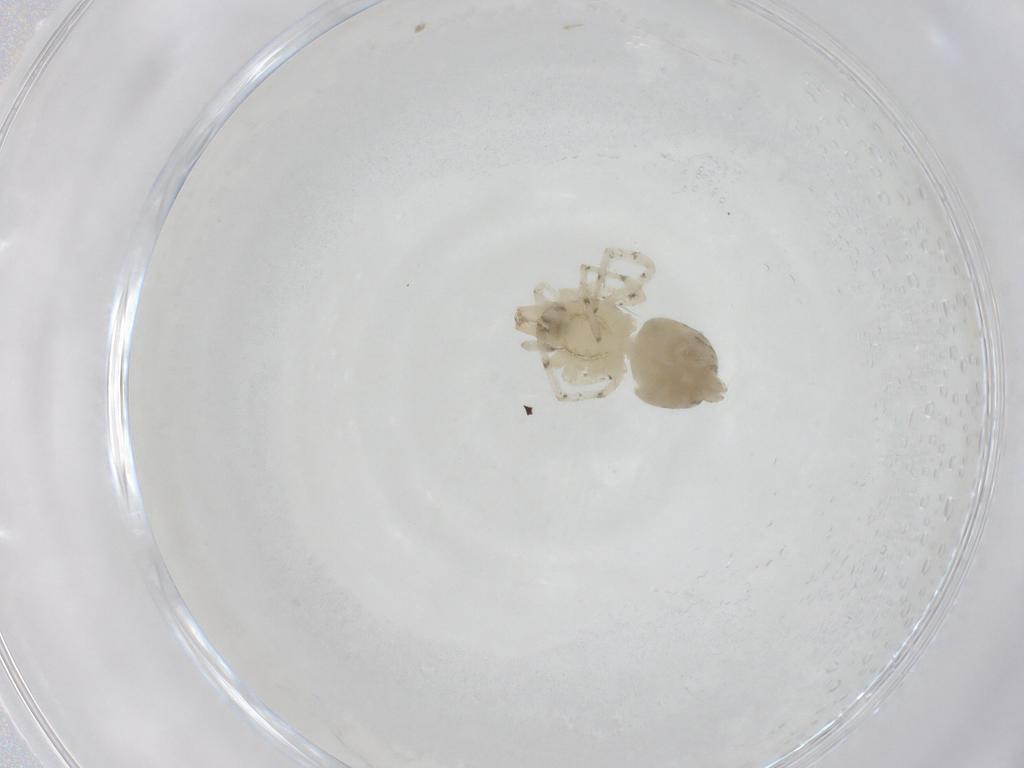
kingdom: Animalia
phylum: Arthropoda
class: Arachnida
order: Araneae
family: Anyphaenidae
